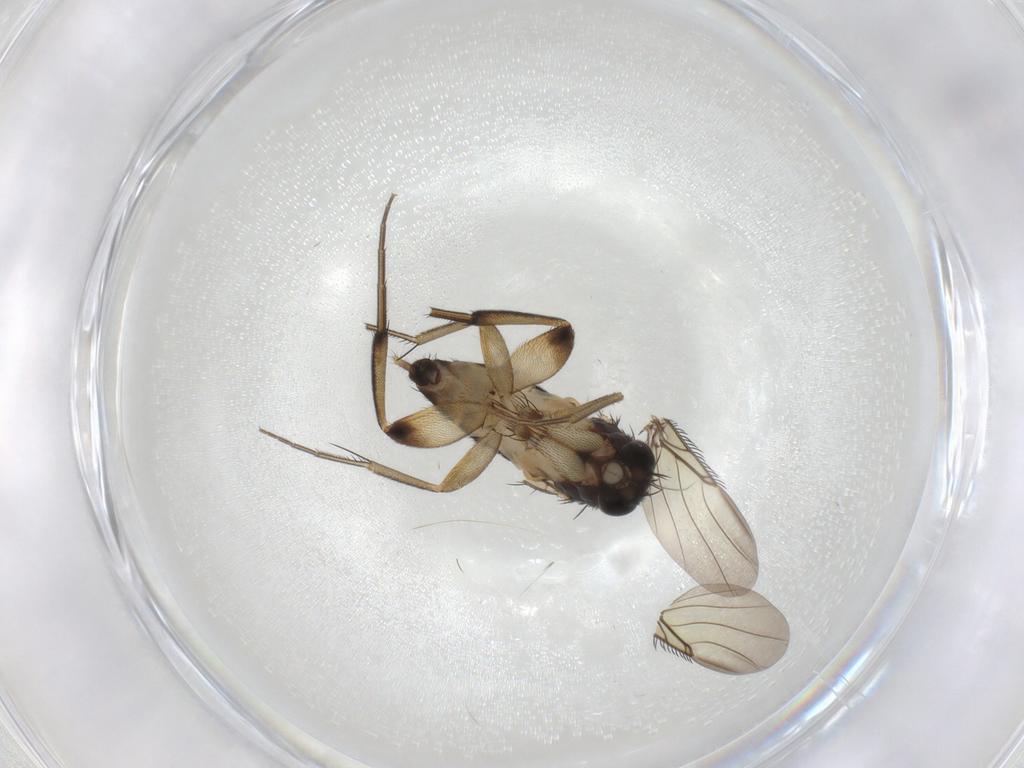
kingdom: Animalia
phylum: Arthropoda
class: Insecta
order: Diptera
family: Phoridae
